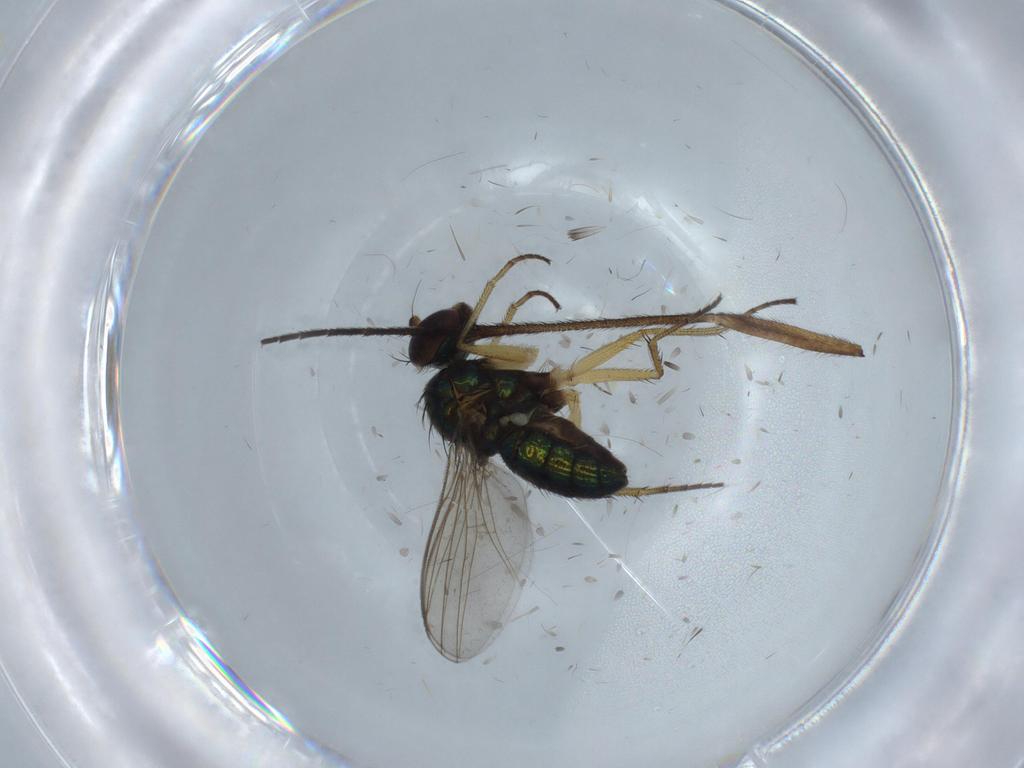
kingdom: Animalia
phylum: Arthropoda
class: Insecta
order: Diptera
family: Sciaridae
